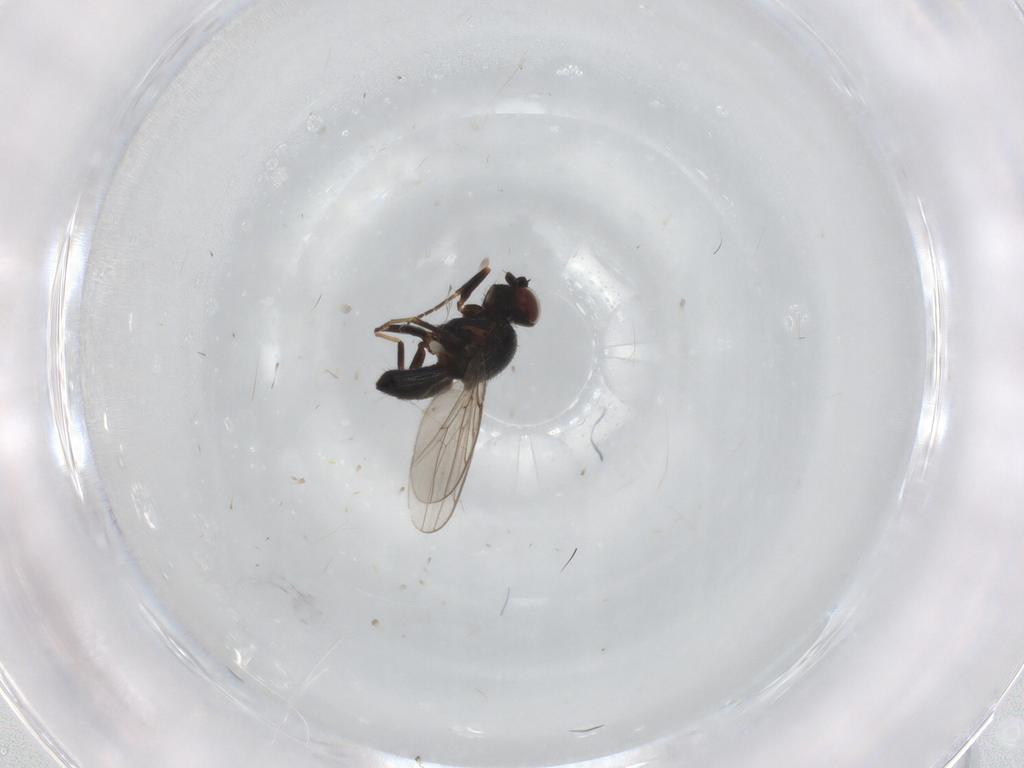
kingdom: Animalia
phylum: Arthropoda
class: Insecta
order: Diptera
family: Chloropidae
